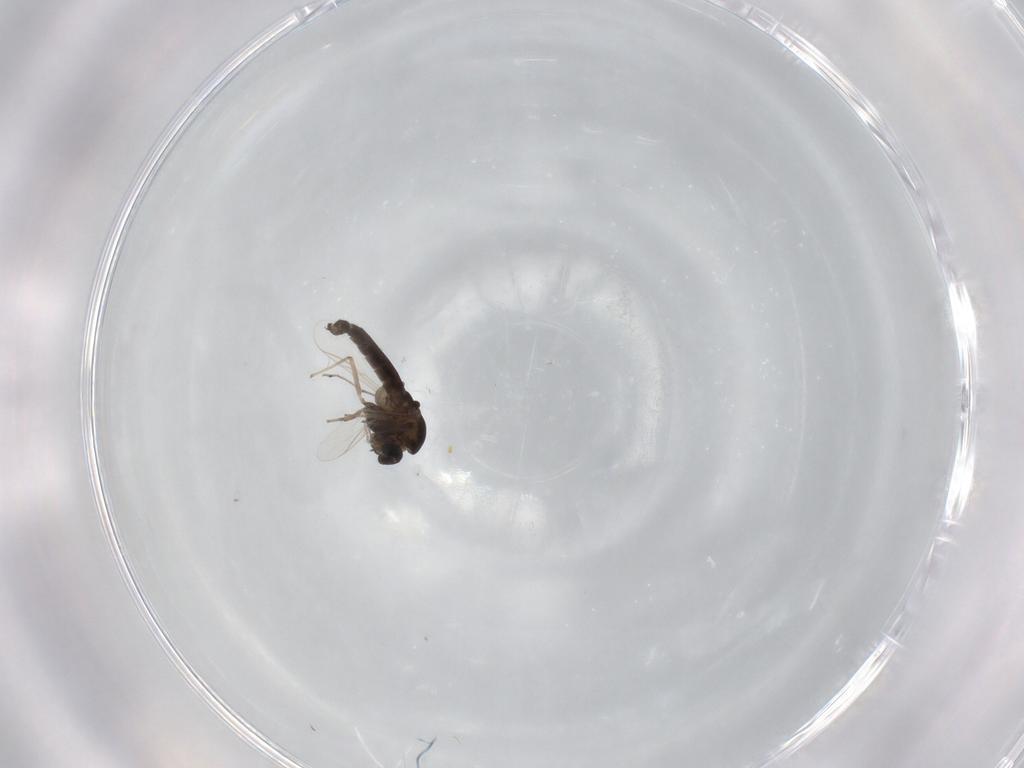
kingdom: Animalia
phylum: Arthropoda
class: Insecta
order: Diptera
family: Chironomidae
